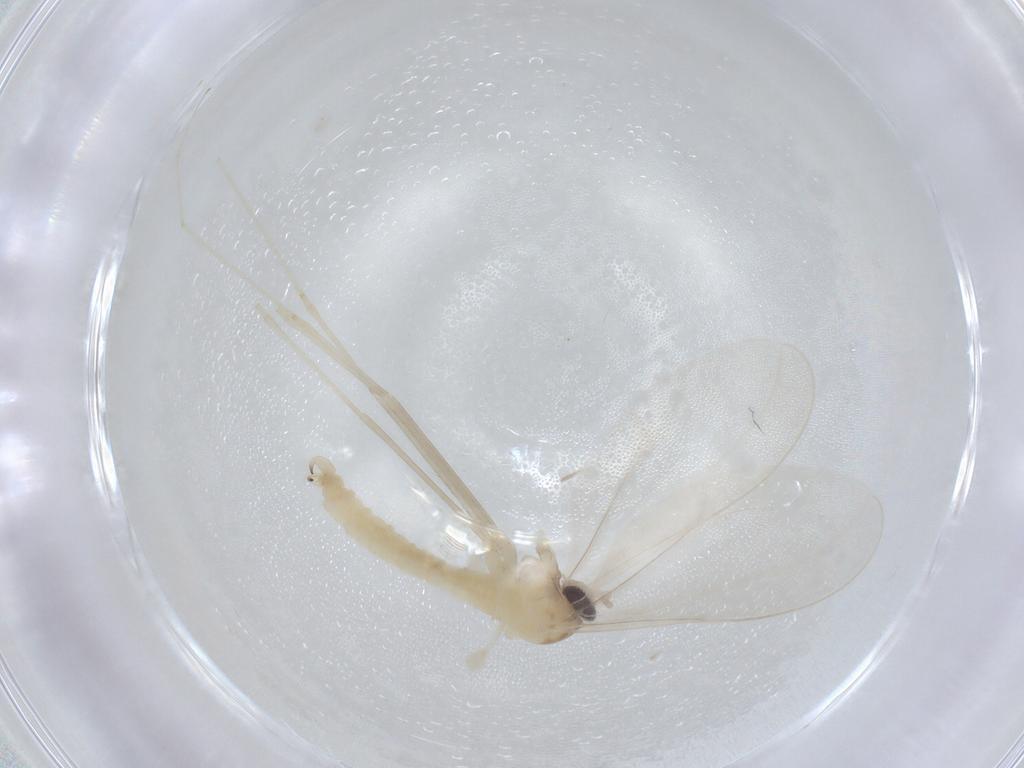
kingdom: Animalia
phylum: Arthropoda
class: Insecta
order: Diptera
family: Cecidomyiidae
